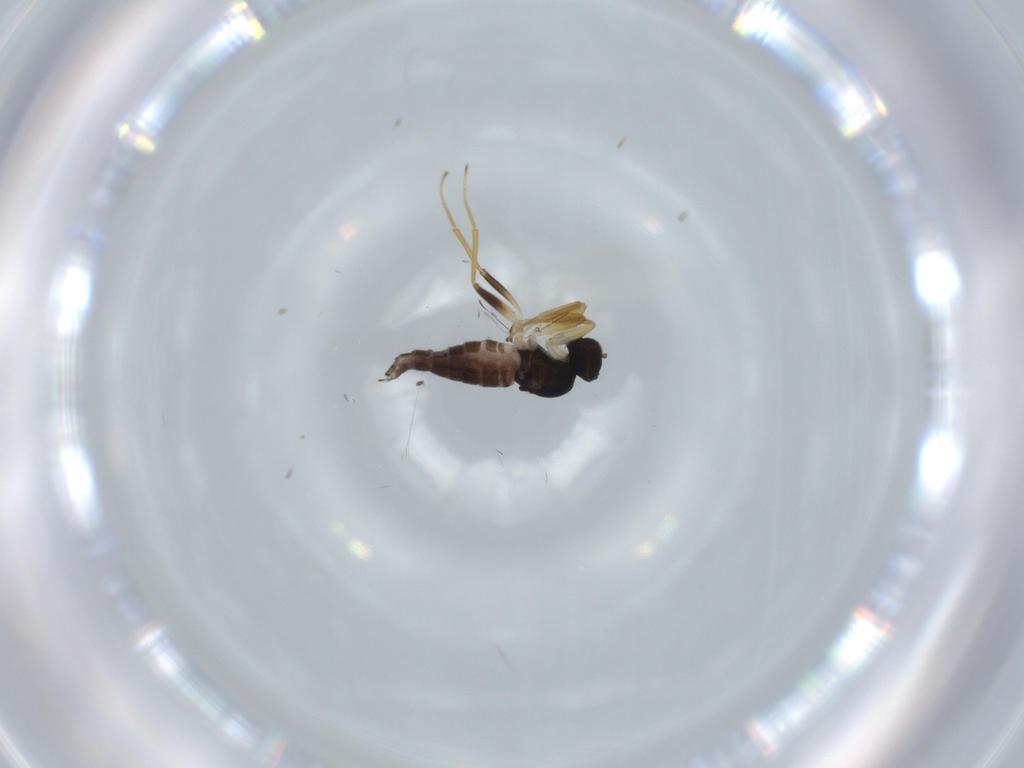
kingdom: Animalia
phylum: Arthropoda
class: Insecta
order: Diptera
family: Hybotidae
